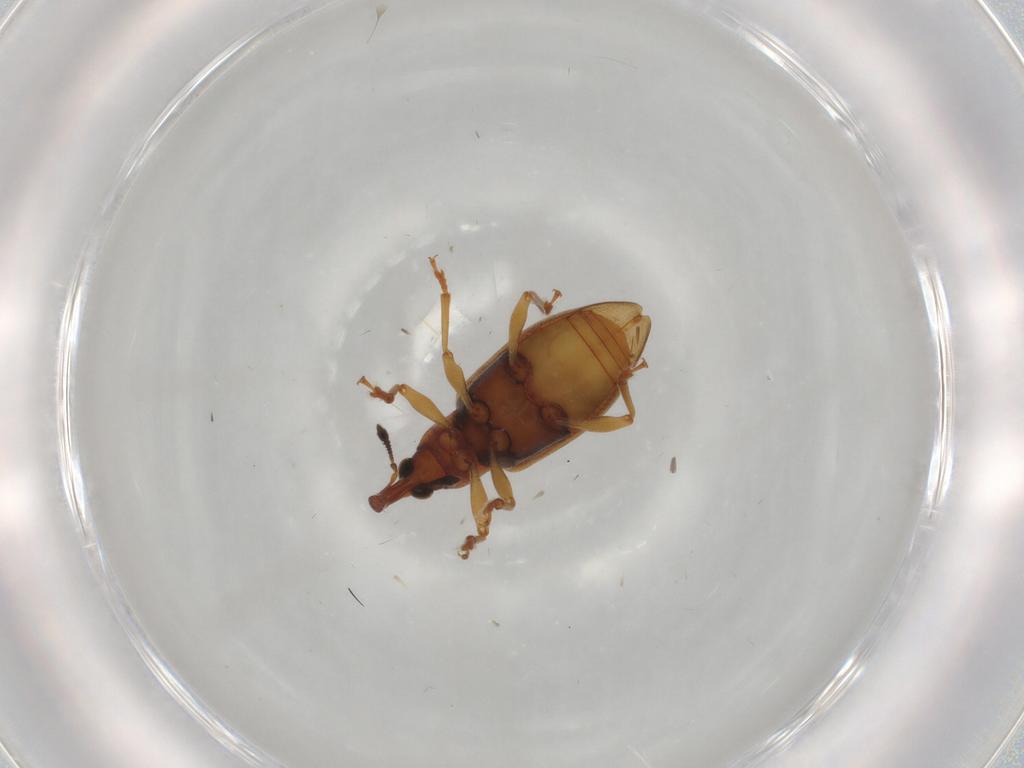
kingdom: Animalia
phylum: Arthropoda
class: Insecta
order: Coleoptera
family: Curculionidae
